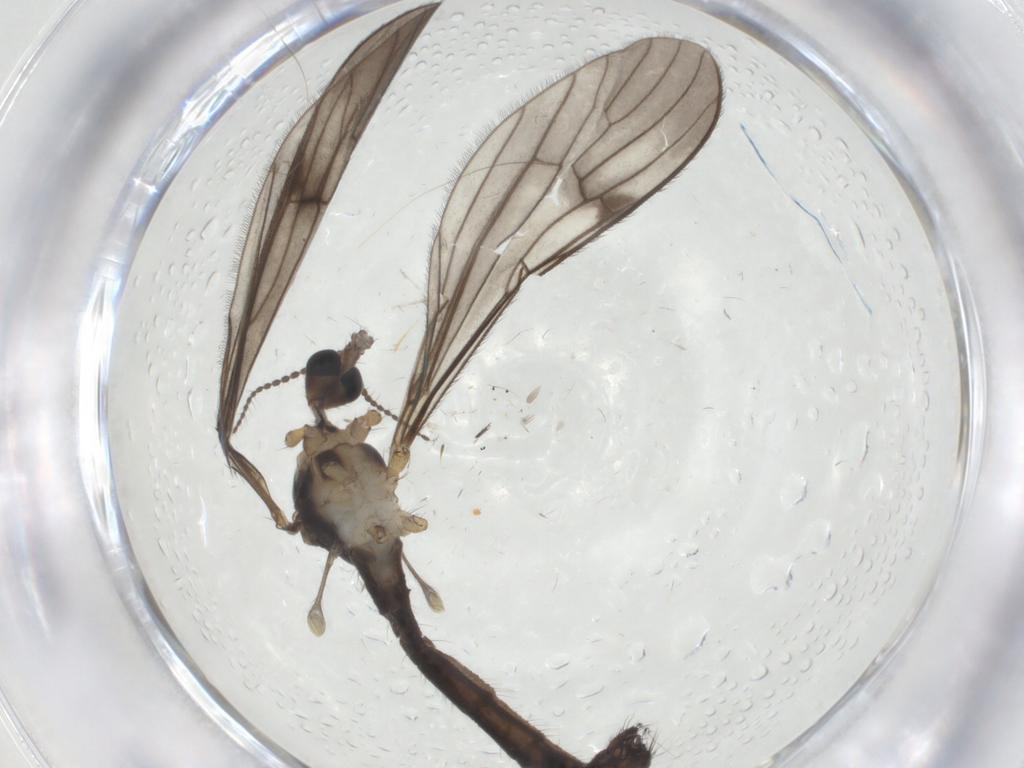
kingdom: Animalia
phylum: Arthropoda
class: Insecta
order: Diptera
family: Limoniidae
